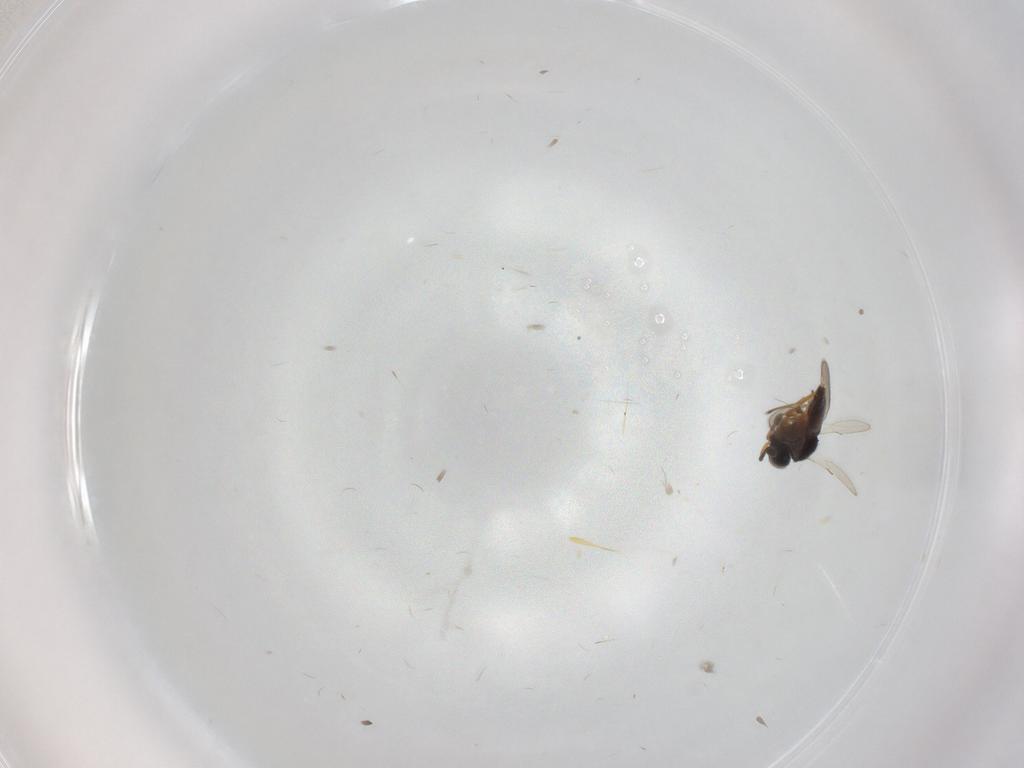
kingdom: Animalia
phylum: Arthropoda
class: Insecta
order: Hymenoptera
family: Scelionidae
